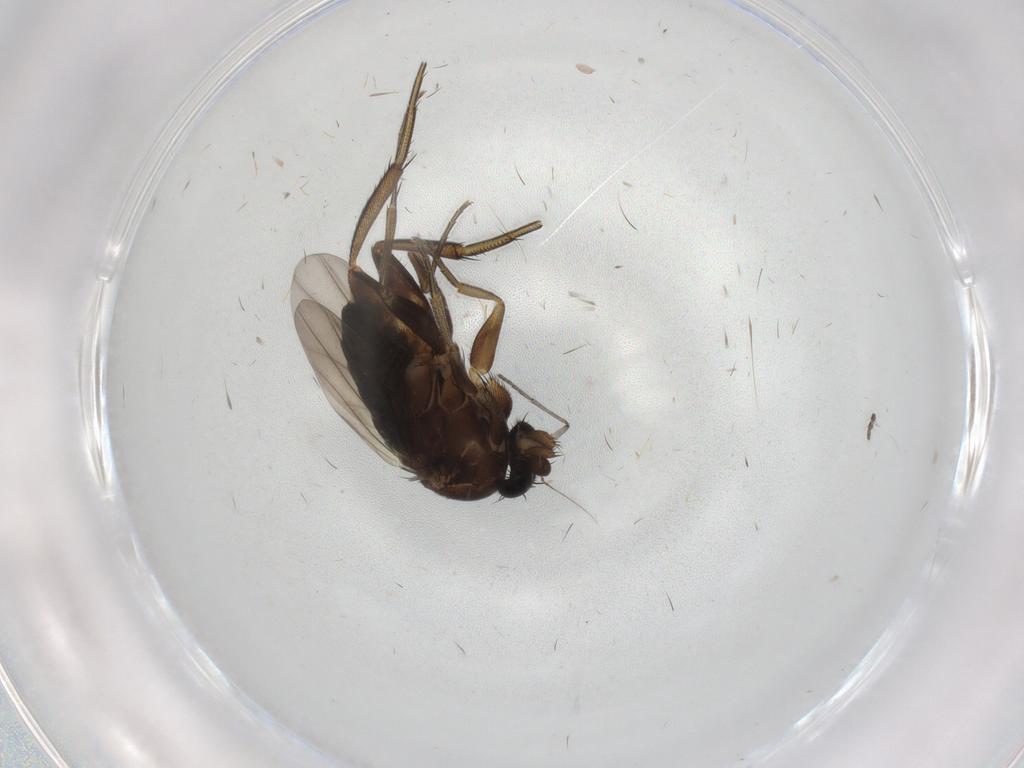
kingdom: Animalia
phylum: Arthropoda
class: Insecta
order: Diptera
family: Phoridae
